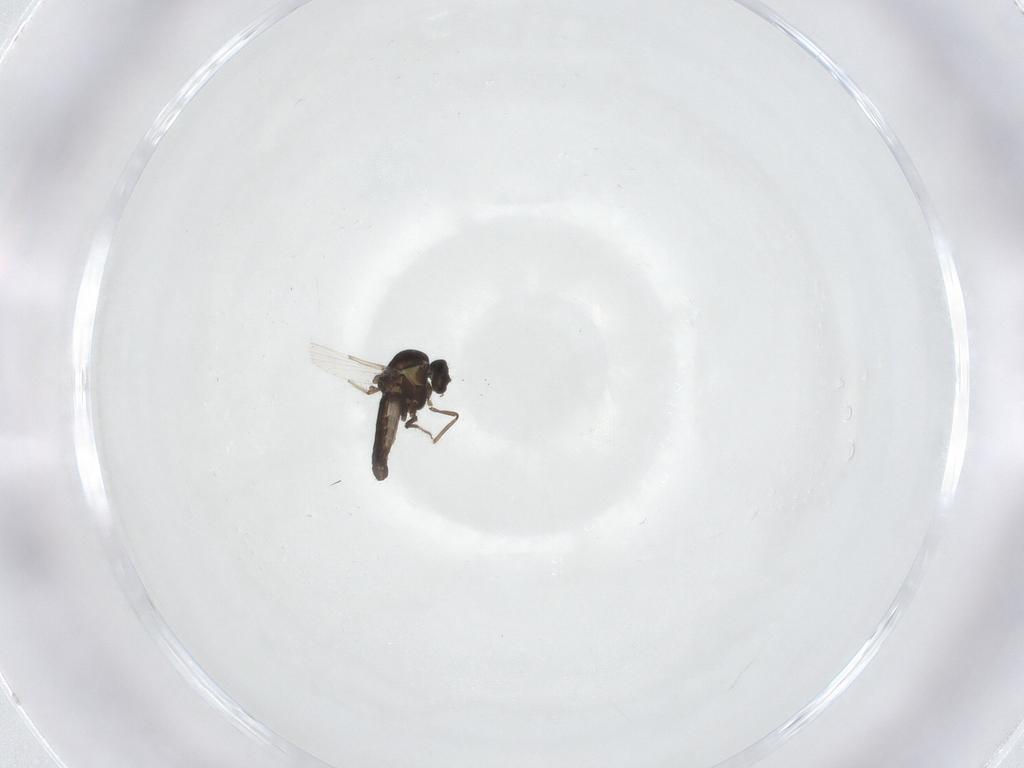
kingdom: Animalia
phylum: Arthropoda
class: Insecta
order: Diptera
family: Ceratopogonidae
